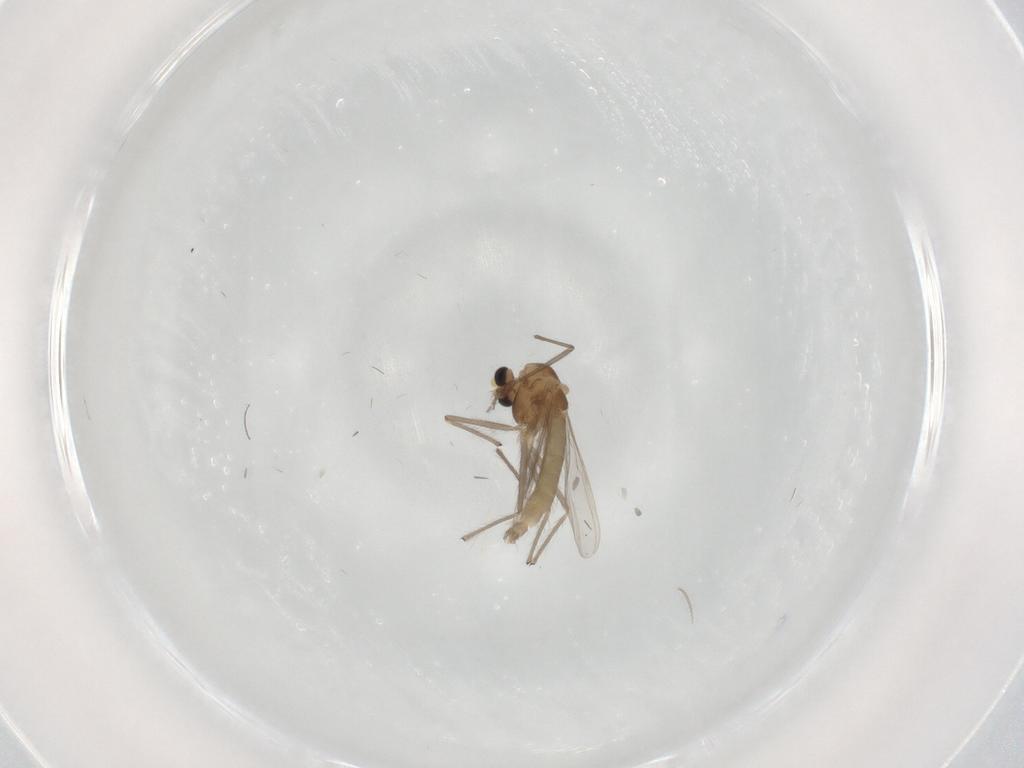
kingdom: Animalia
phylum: Arthropoda
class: Insecta
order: Diptera
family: Chironomidae
